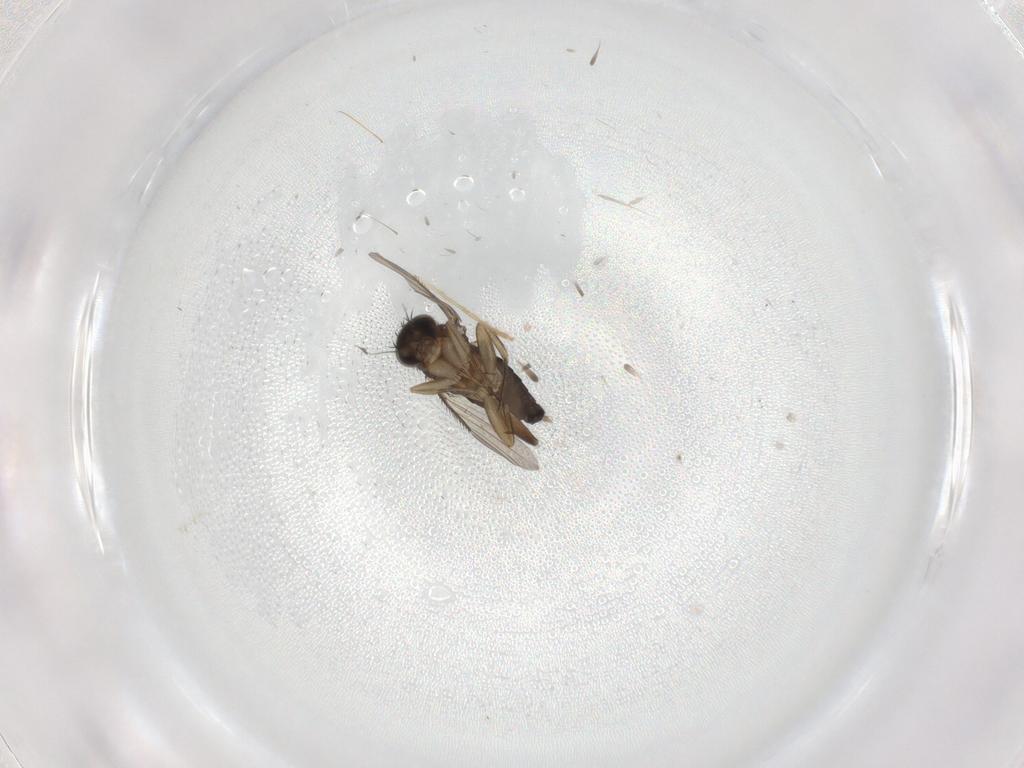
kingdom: Animalia
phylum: Arthropoda
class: Insecta
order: Diptera
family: Phoridae
